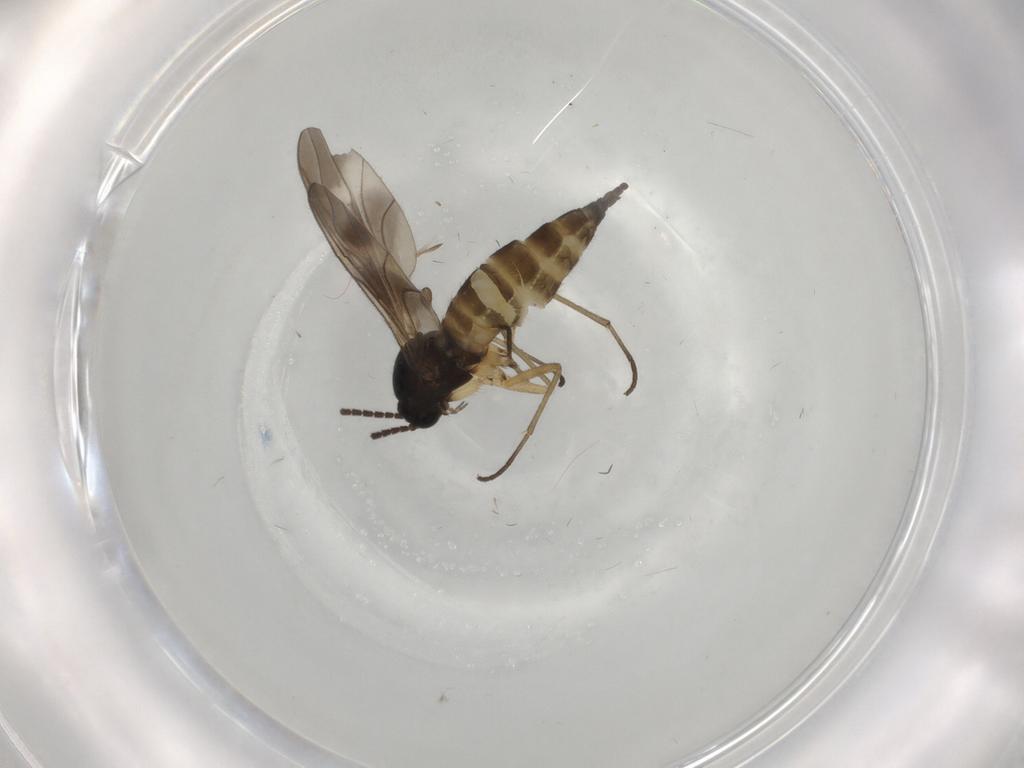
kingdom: Animalia
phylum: Arthropoda
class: Insecta
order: Diptera
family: Sciaridae
